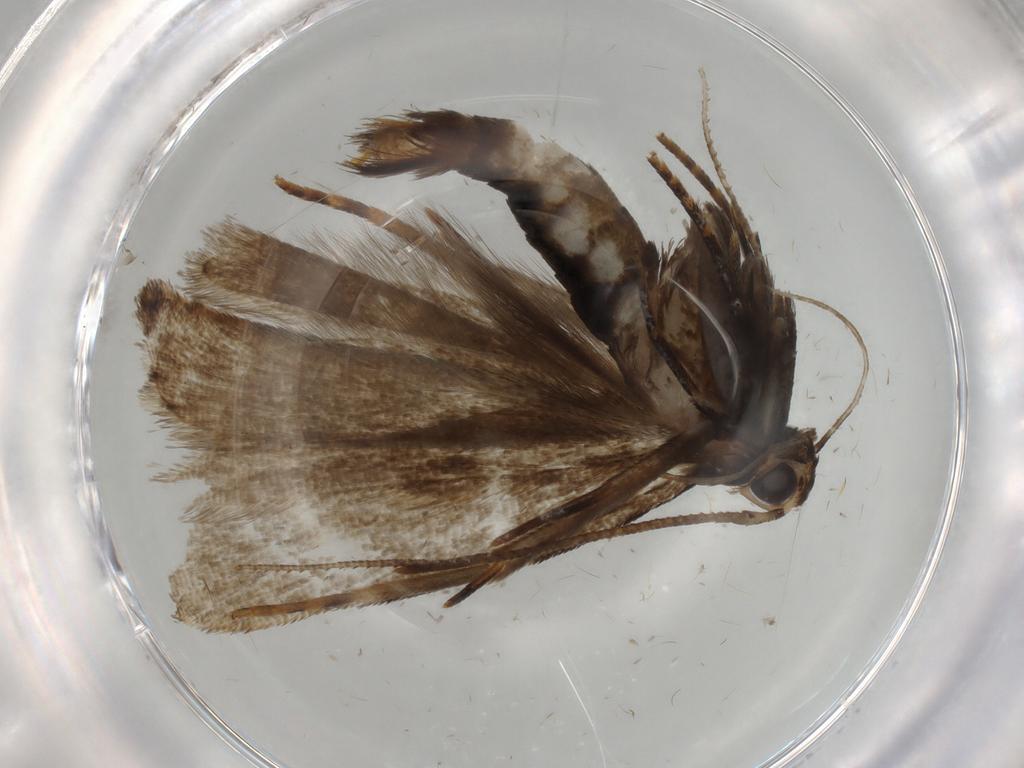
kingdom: Animalia
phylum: Arthropoda
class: Insecta
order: Lepidoptera
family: Cosmopterigidae
